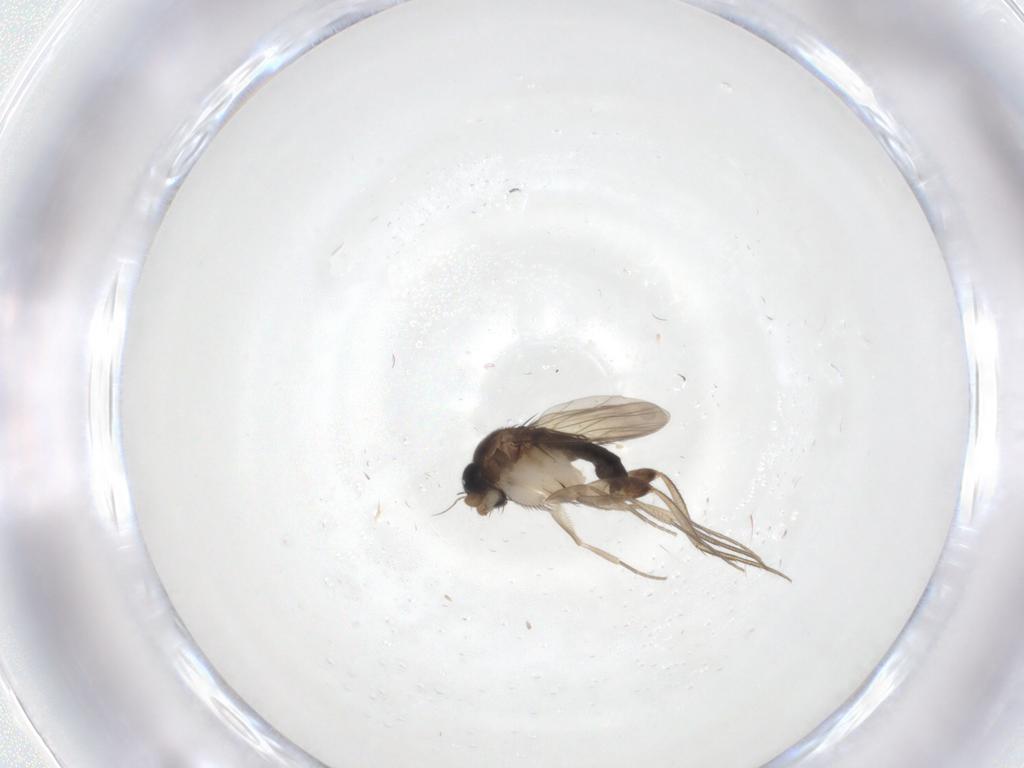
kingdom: Animalia
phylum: Arthropoda
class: Insecta
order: Diptera
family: Phoridae
